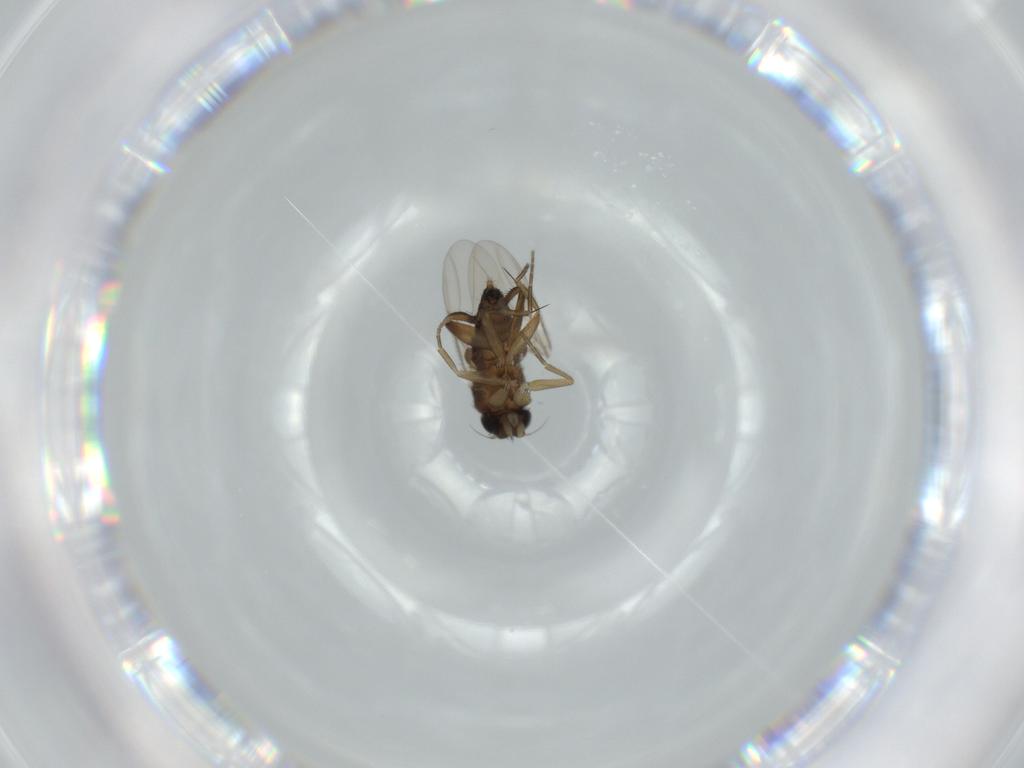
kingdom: Animalia
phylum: Arthropoda
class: Insecta
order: Diptera
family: Phoridae
